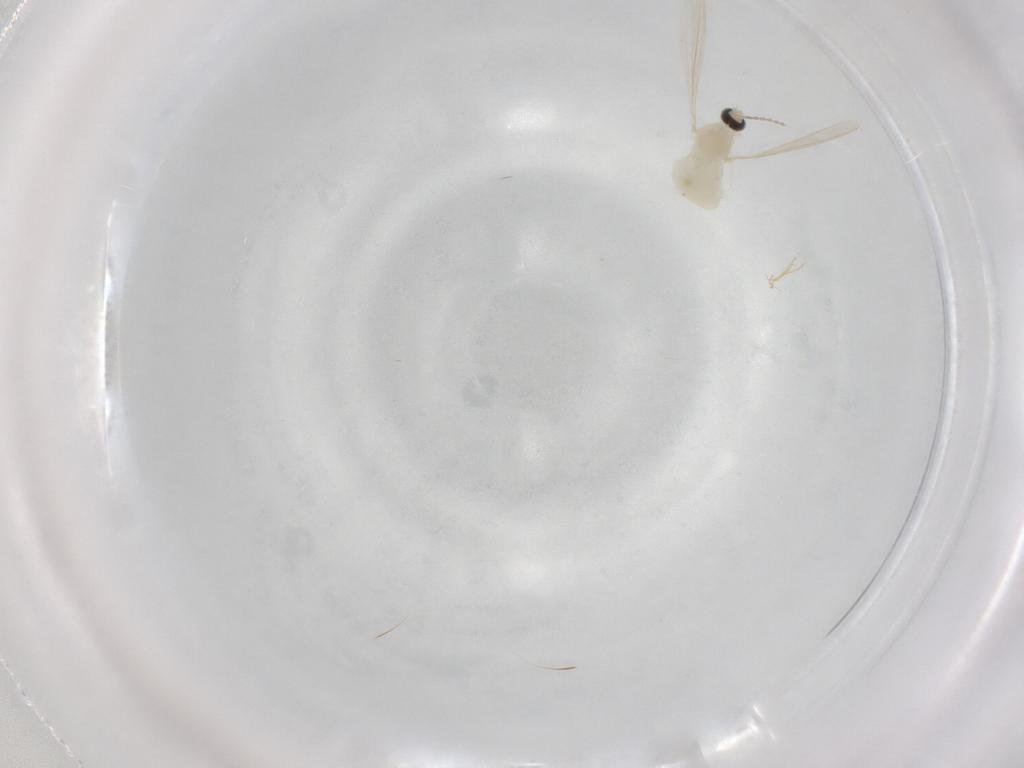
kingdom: Animalia
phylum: Arthropoda
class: Insecta
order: Diptera
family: Cecidomyiidae
